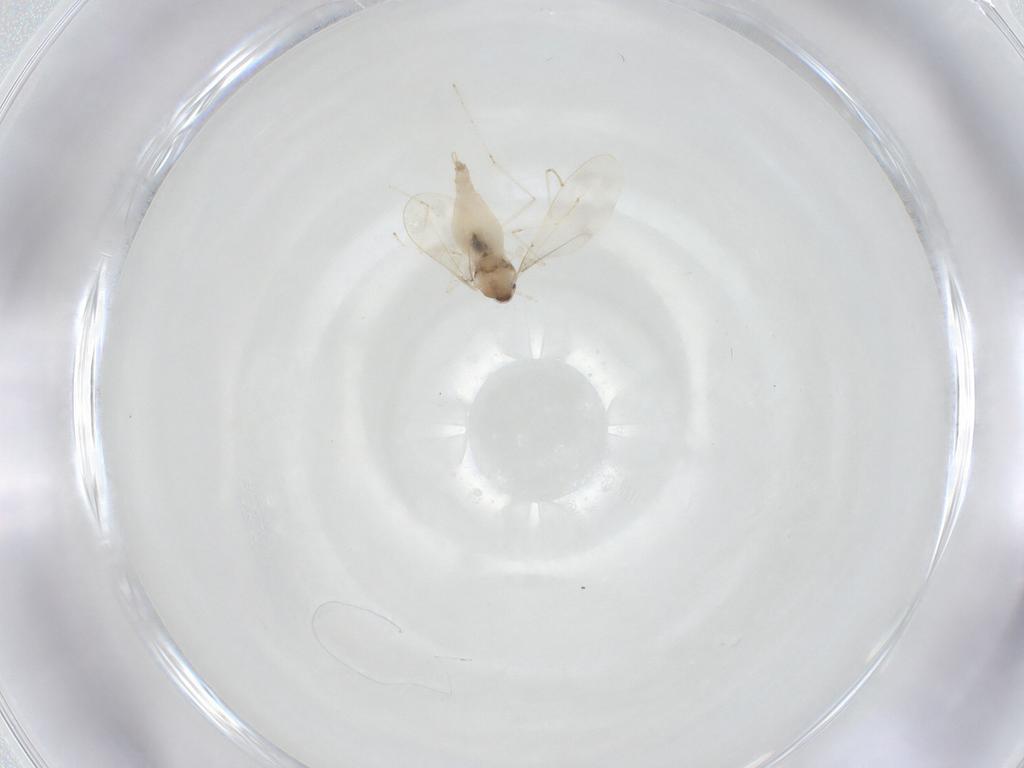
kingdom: Animalia
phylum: Arthropoda
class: Insecta
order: Diptera
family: Cecidomyiidae
